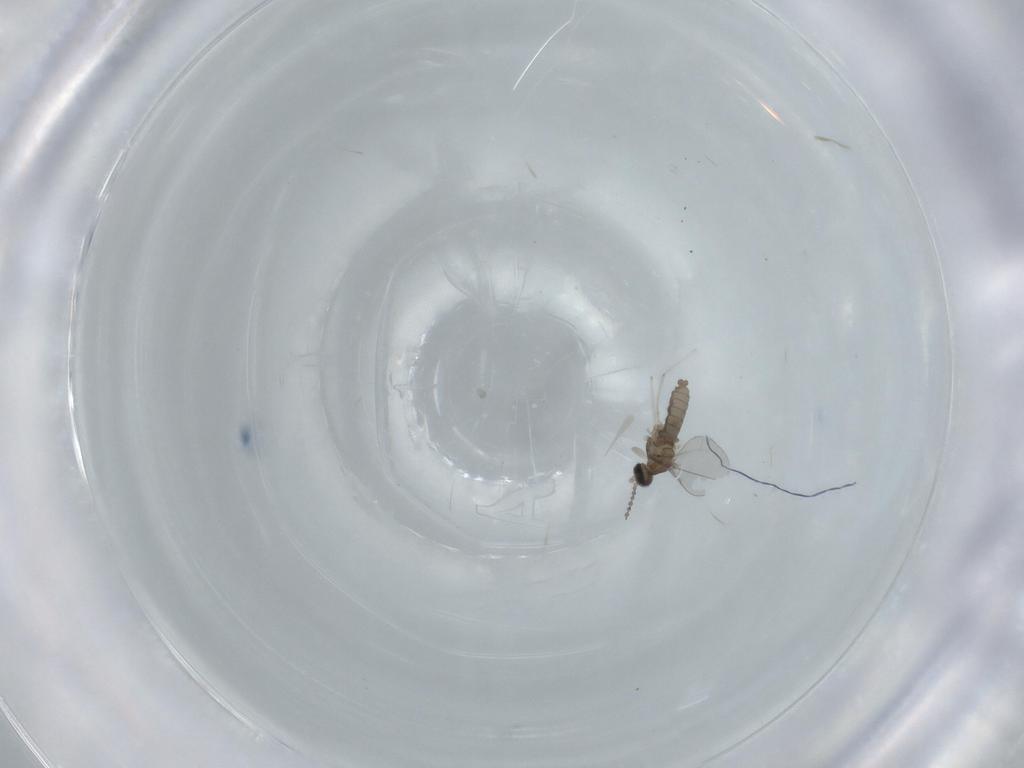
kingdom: Animalia
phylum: Arthropoda
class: Insecta
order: Diptera
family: Cecidomyiidae
